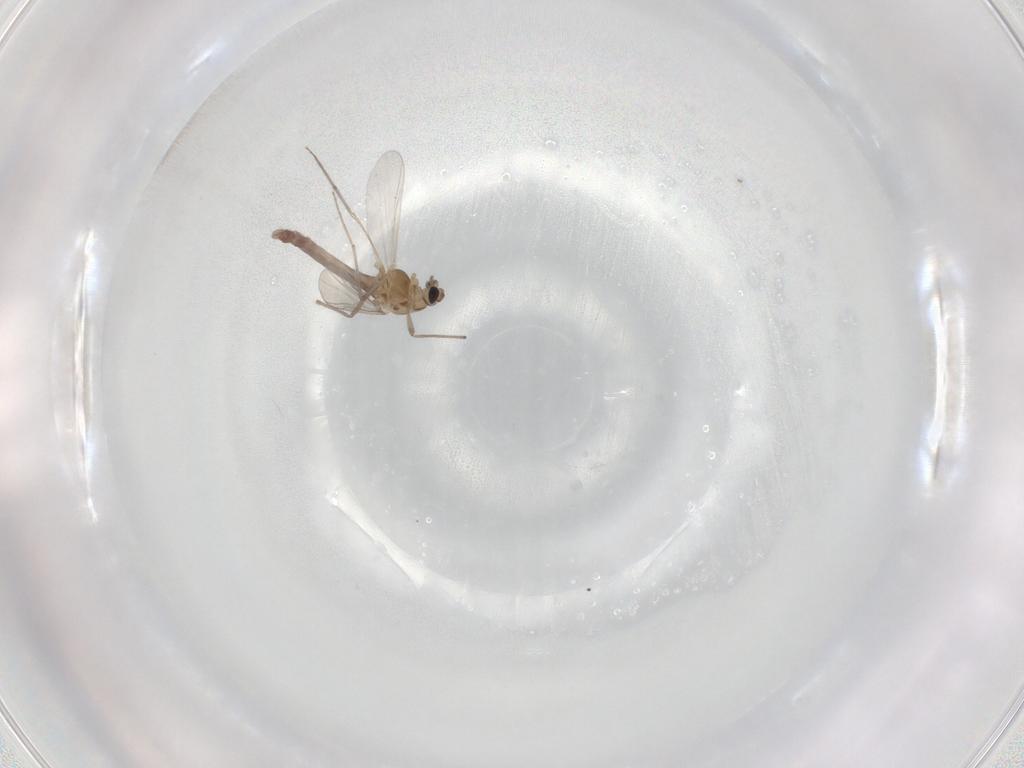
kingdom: Animalia
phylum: Arthropoda
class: Insecta
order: Diptera
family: Chironomidae
